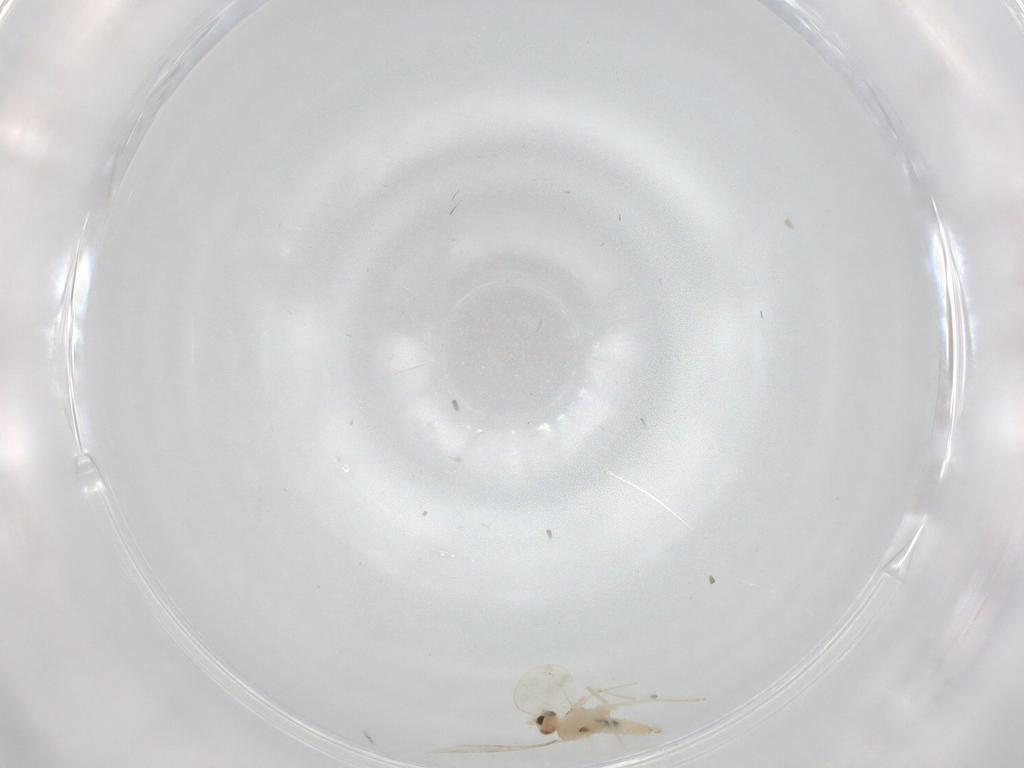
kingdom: Animalia
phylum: Arthropoda
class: Insecta
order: Diptera
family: Phoridae
